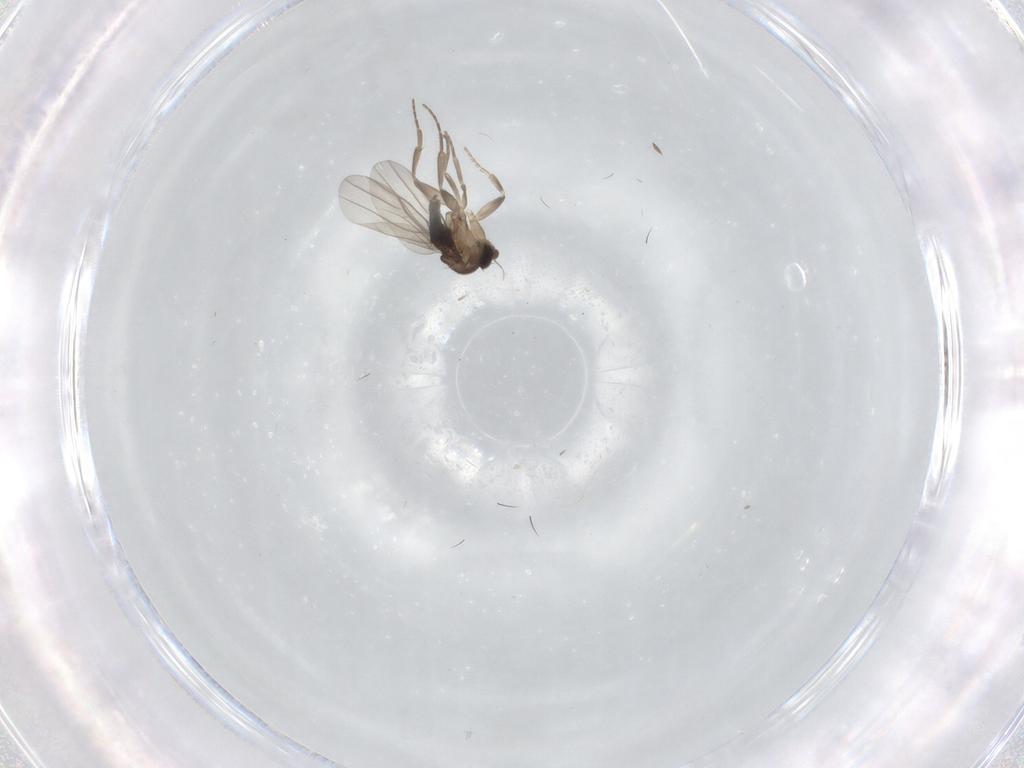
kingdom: Animalia
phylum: Arthropoda
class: Insecta
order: Diptera
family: Phoridae
